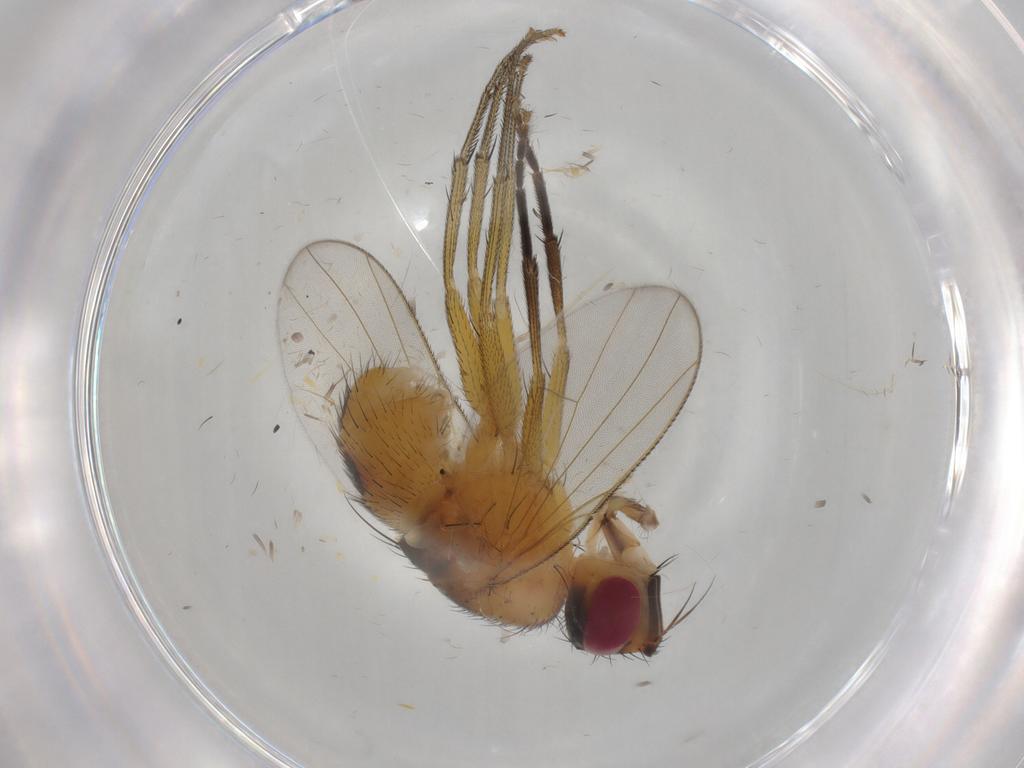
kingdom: Animalia
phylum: Arthropoda
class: Insecta
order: Diptera
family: Muscidae
